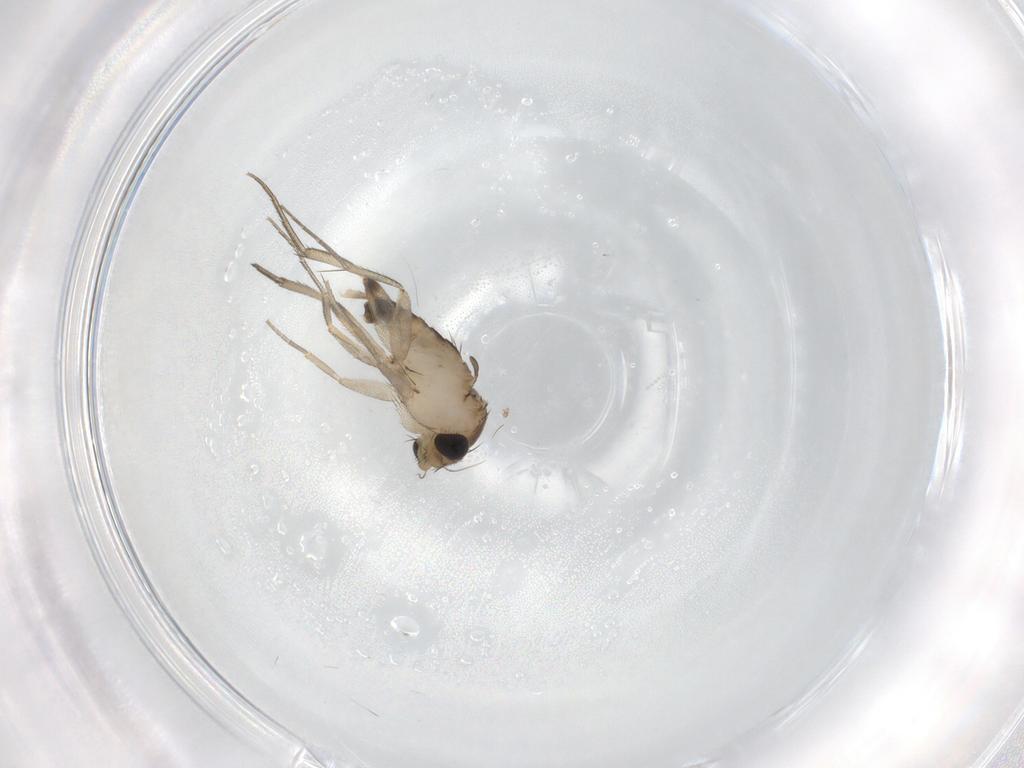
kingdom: Animalia
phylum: Arthropoda
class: Insecta
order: Diptera
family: Phoridae
